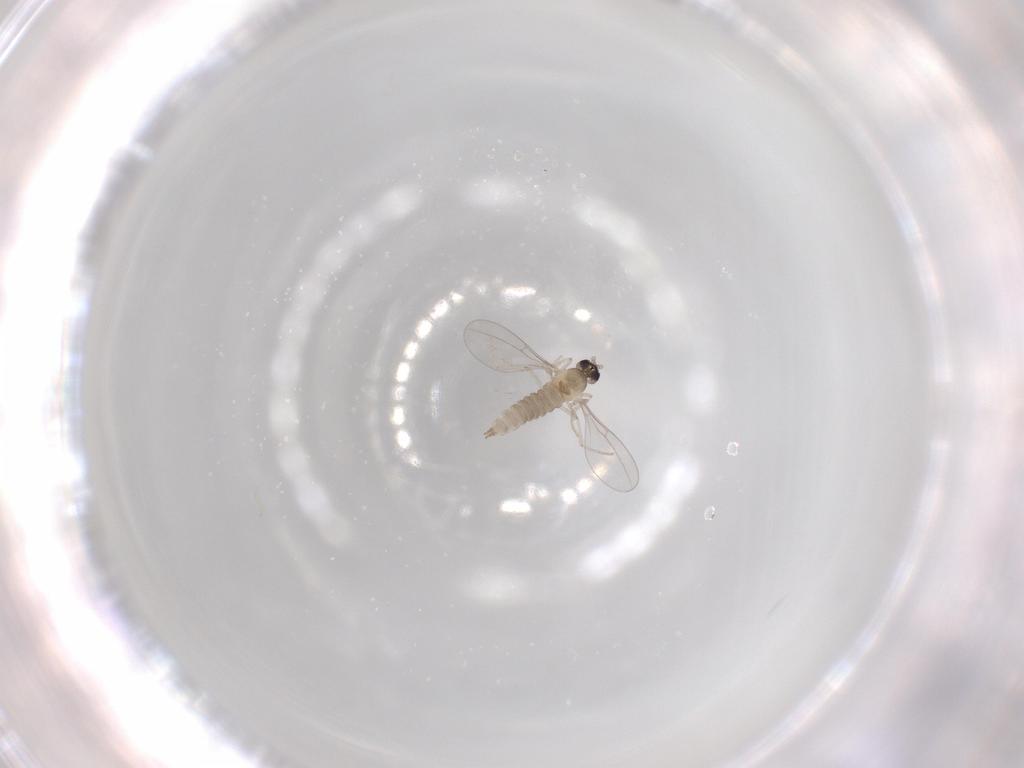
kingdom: Animalia
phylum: Arthropoda
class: Insecta
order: Diptera
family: Cecidomyiidae
